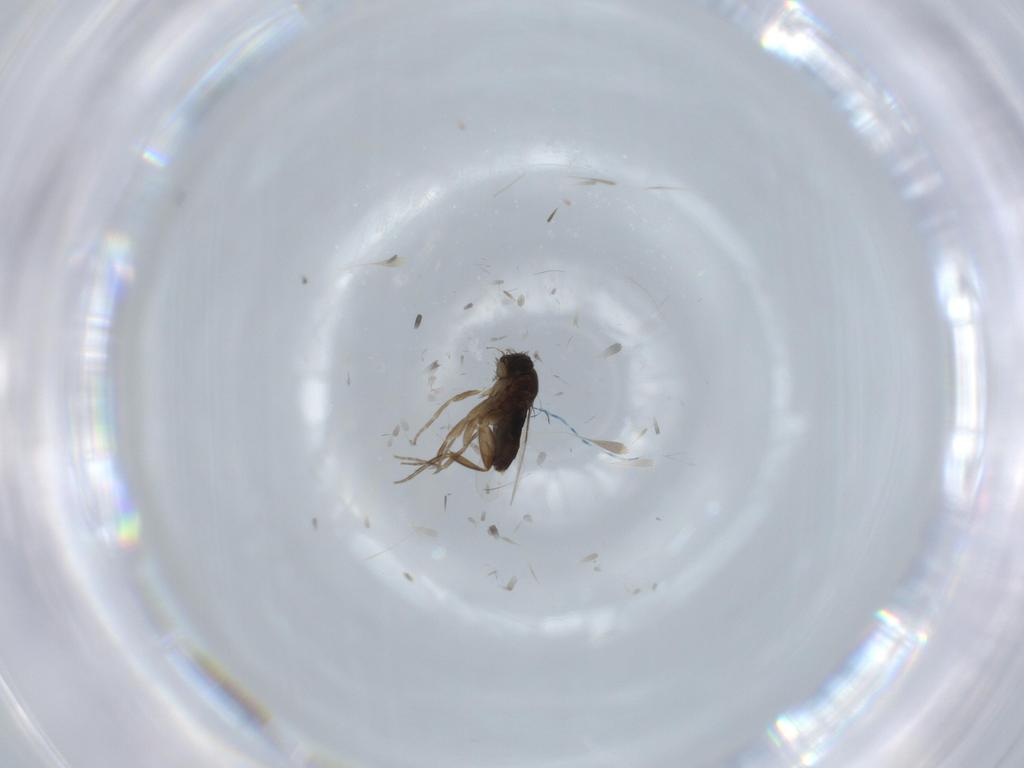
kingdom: Animalia
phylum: Arthropoda
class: Insecta
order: Diptera
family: Phoridae
